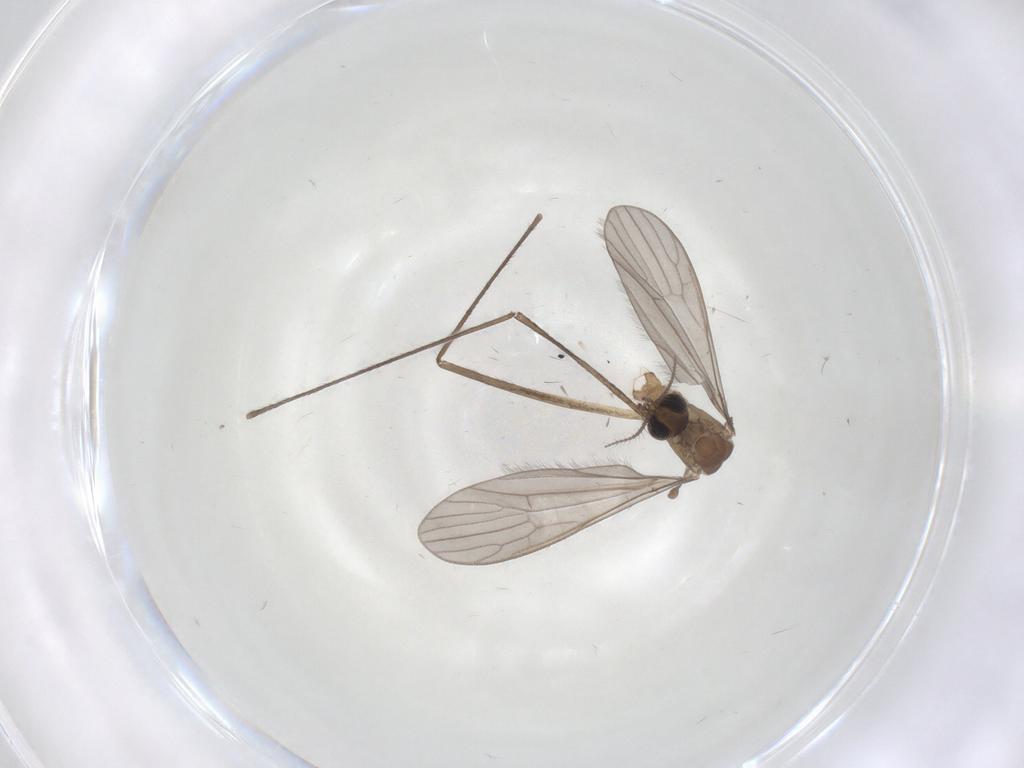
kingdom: Animalia
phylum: Arthropoda
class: Insecta
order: Diptera
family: Limoniidae
